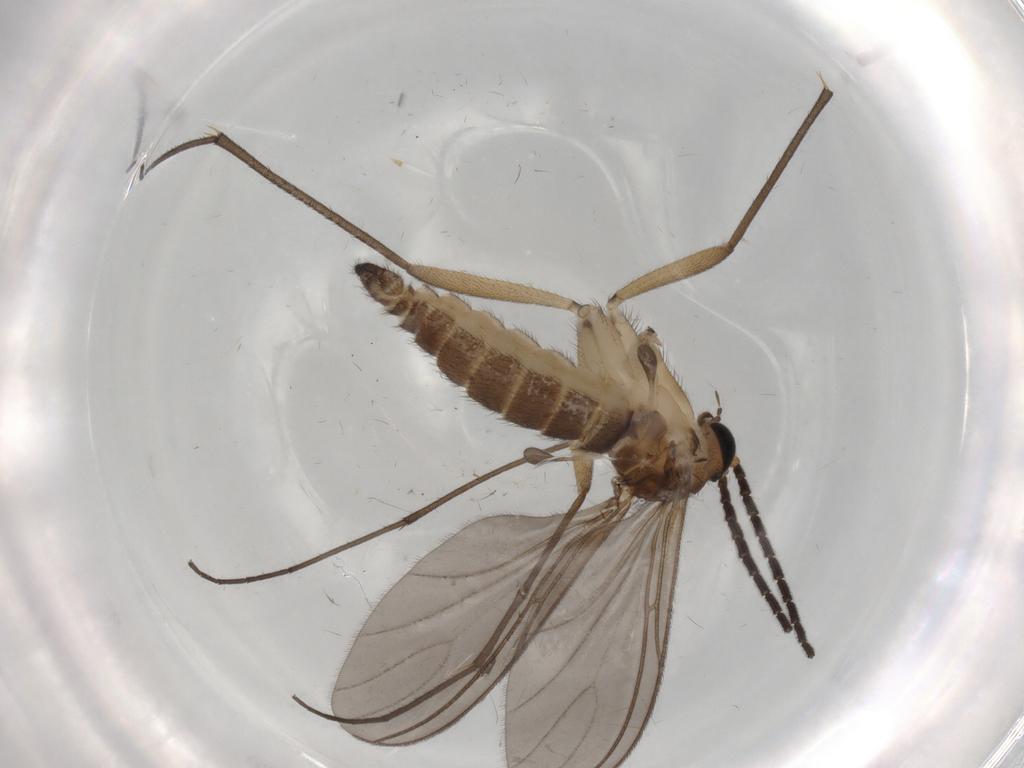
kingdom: Animalia
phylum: Arthropoda
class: Insecta
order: Diptera
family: Sciaridae
